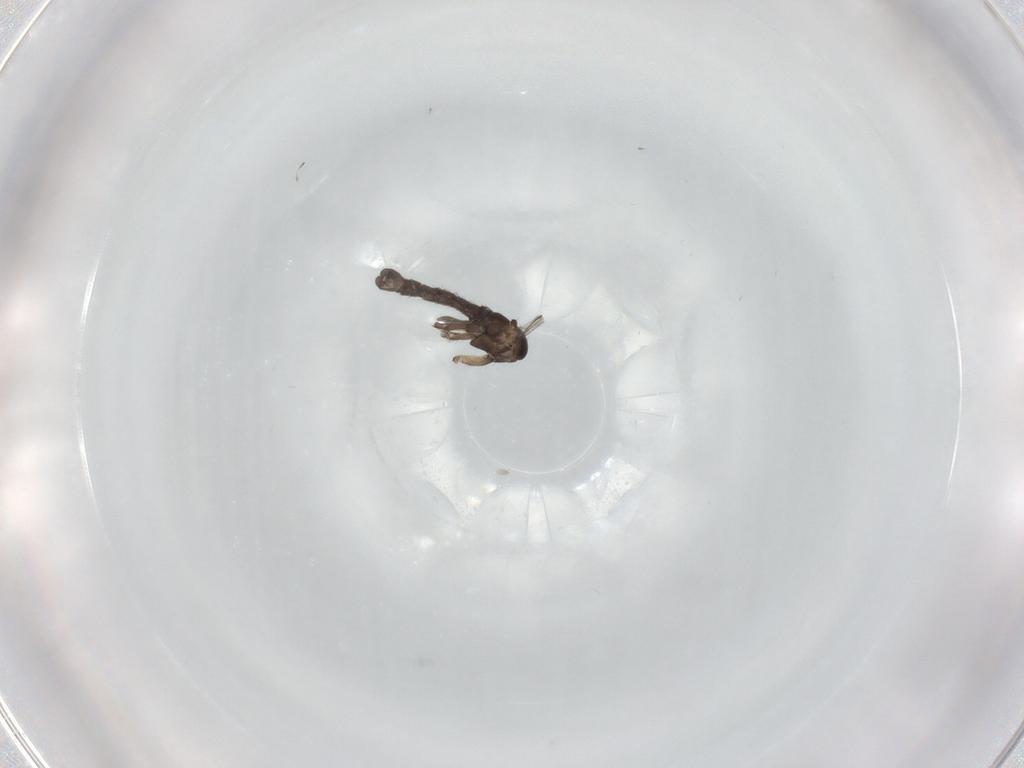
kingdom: Animalia
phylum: Arthropoda
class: Insecta
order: Diptera
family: Sciaridae
